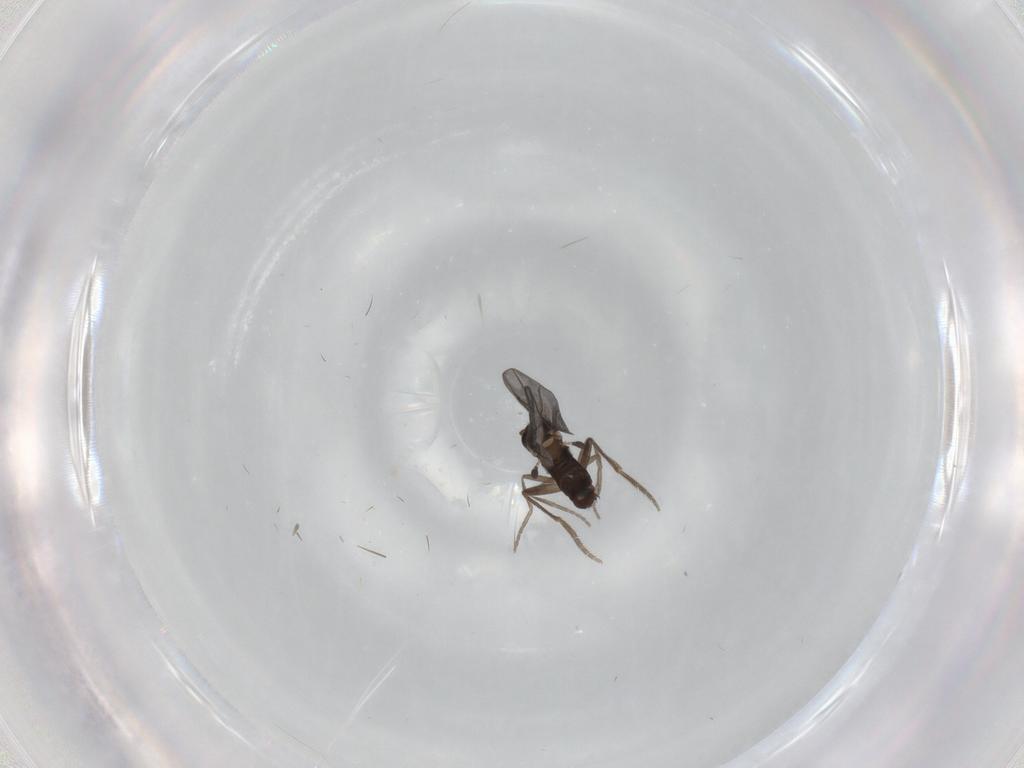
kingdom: Animalia
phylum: Arthropoda
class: Insecta
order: Diptera
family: Phoridae
